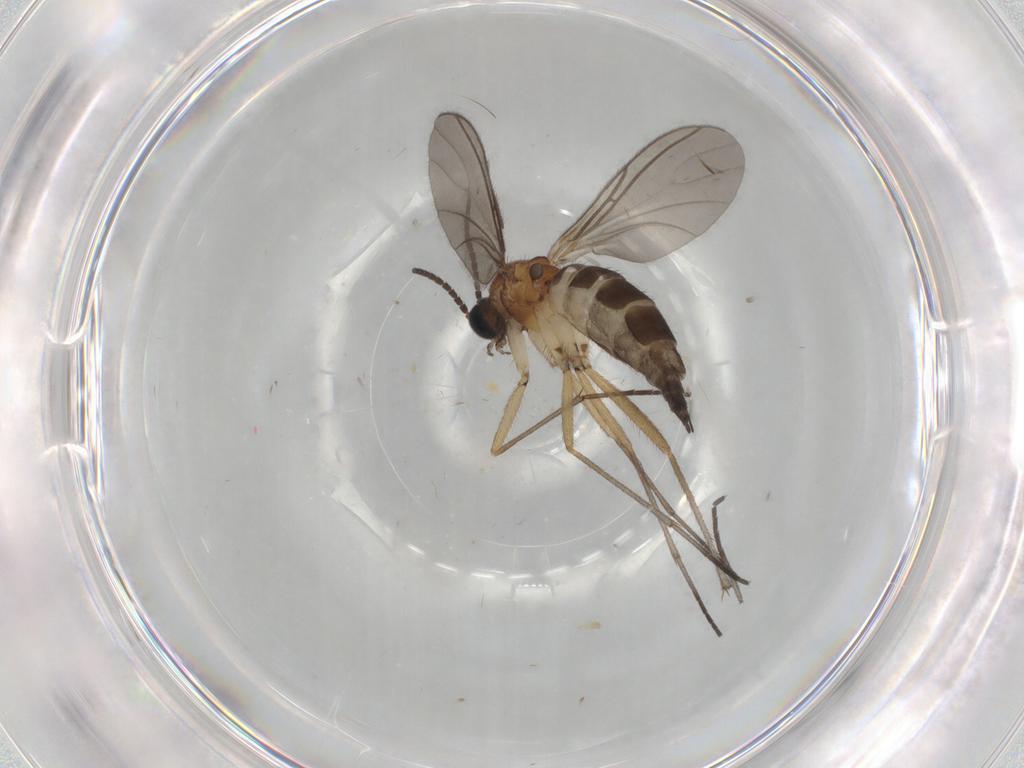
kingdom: Animalia
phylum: Arthropoda
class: Insecta
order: Diptera
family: Sciaridae
